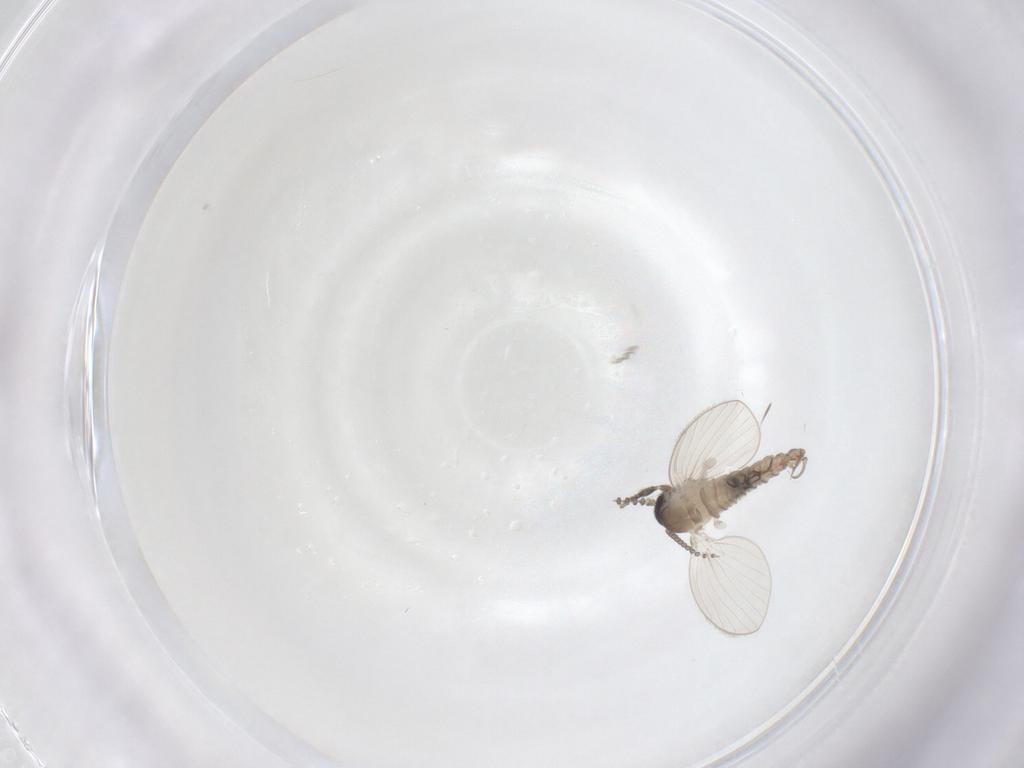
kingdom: Animalia
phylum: Arthropoda
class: Insecta
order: Diptera
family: Psychodidae
